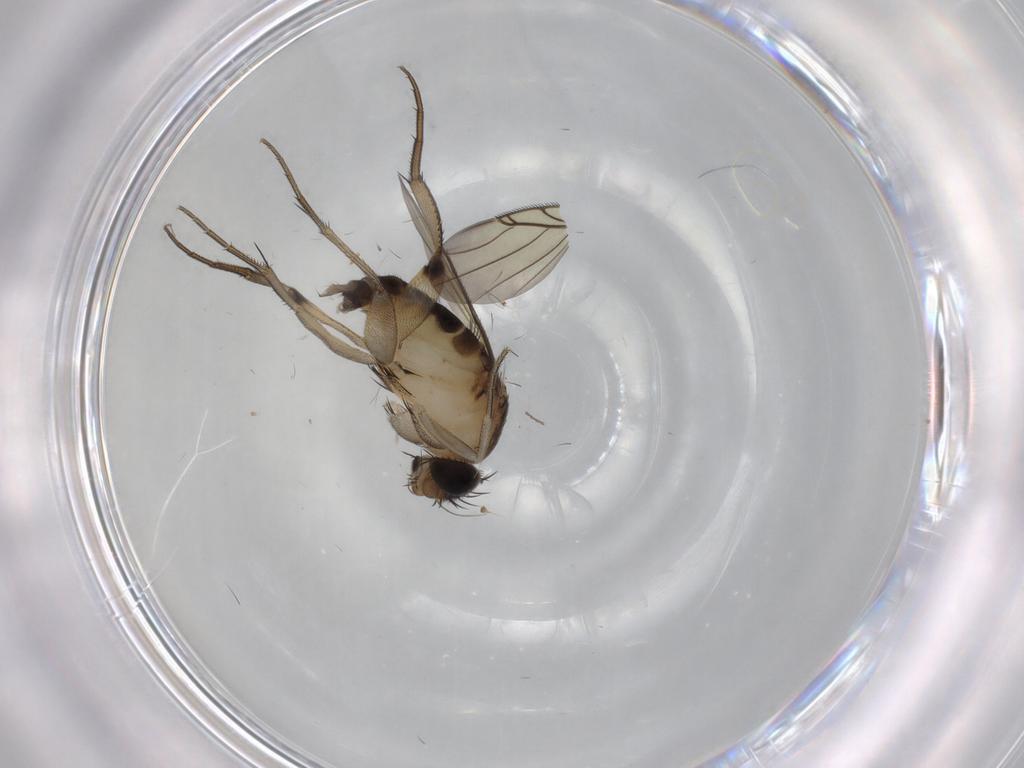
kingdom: Animalia
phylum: Arthropoda
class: Insecta
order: Diptera
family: Phoridae
